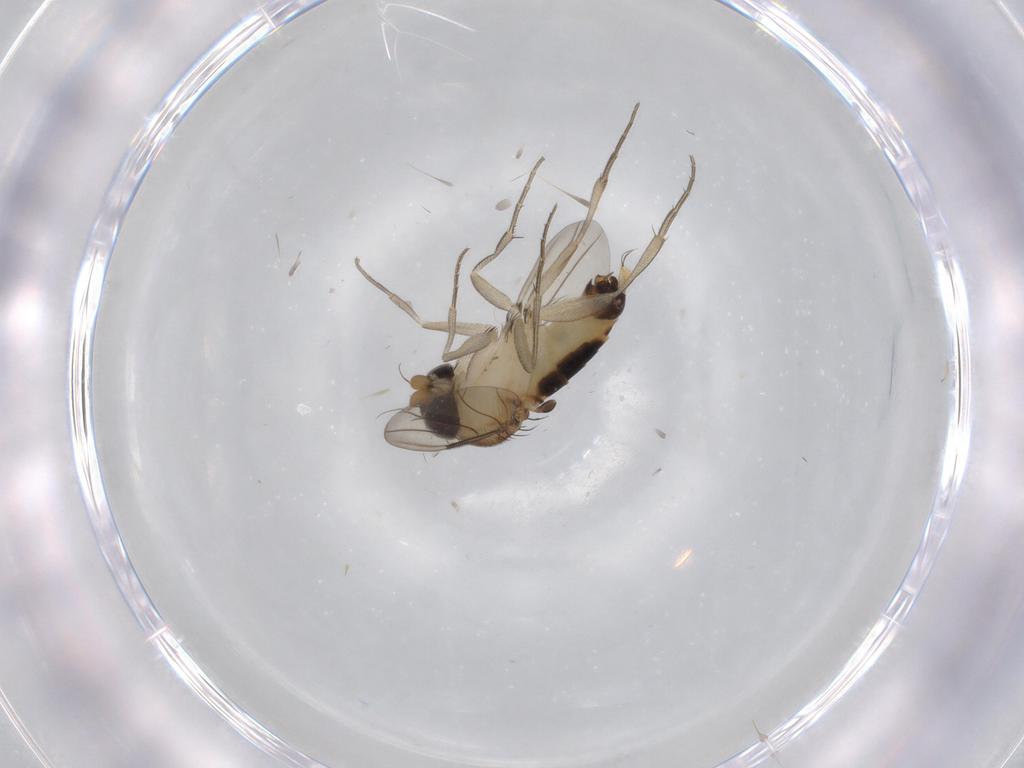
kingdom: Animalia
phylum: Arthropoda
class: Insecta
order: Diptera
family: Phoridae
